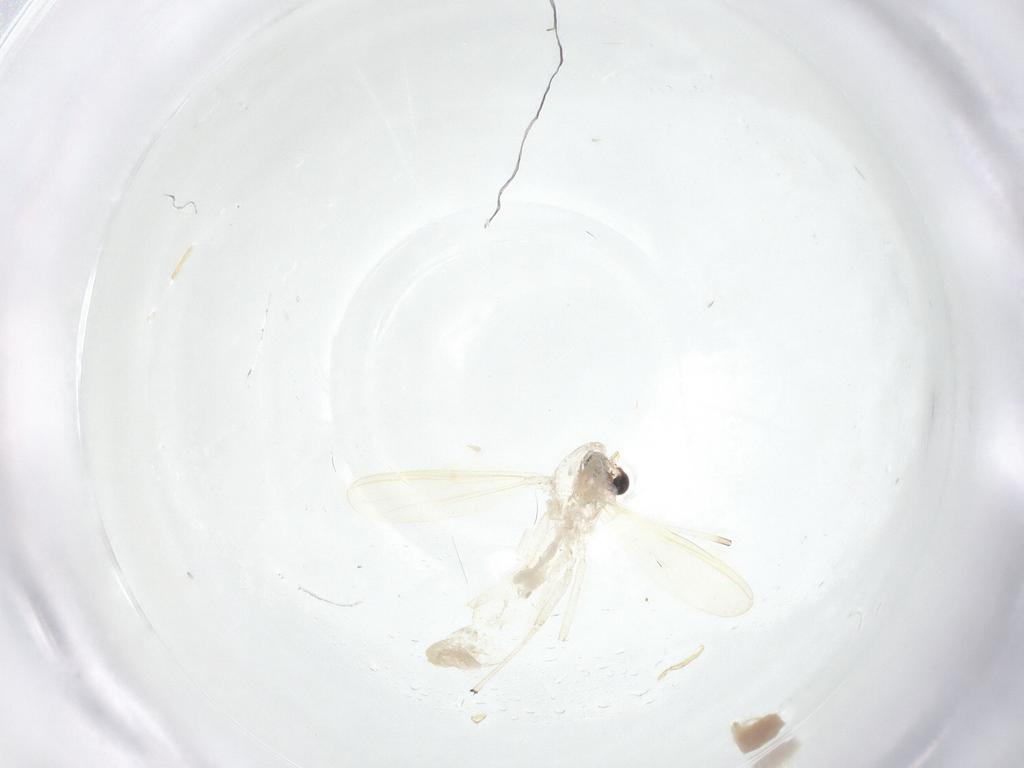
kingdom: Animalia
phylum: Arthropoda
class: Insecta
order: Diptera
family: Chironomidae
